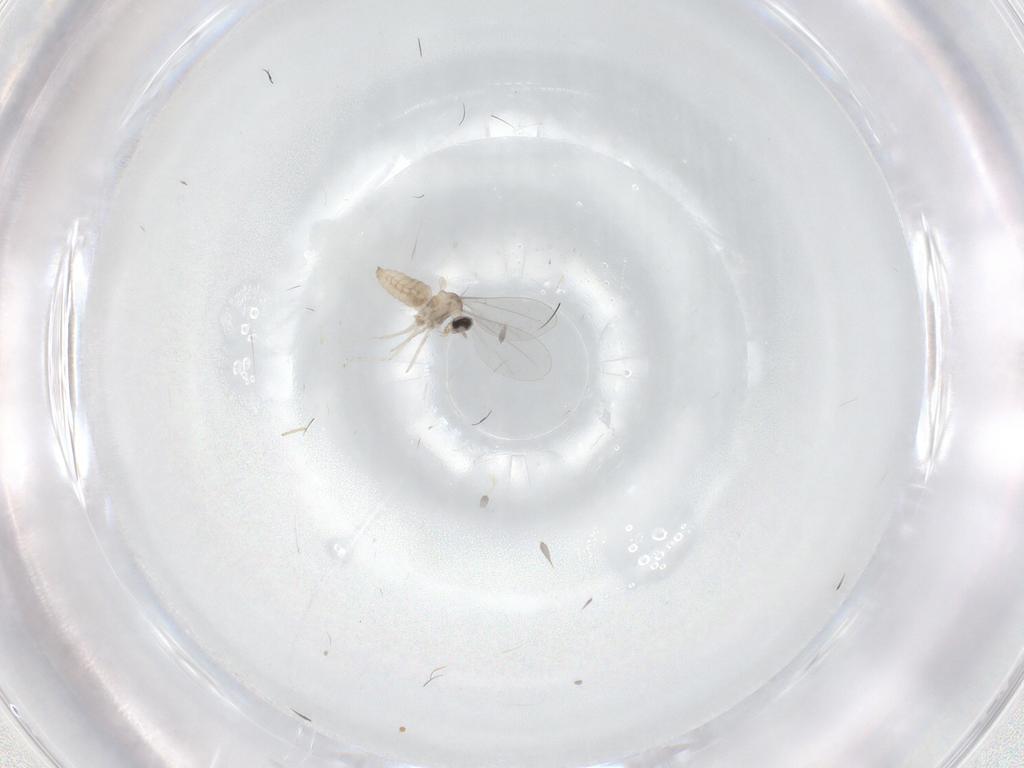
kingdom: Animalia
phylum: Arthropoda
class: Insecta
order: Diptera
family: Cecidomyiidae
